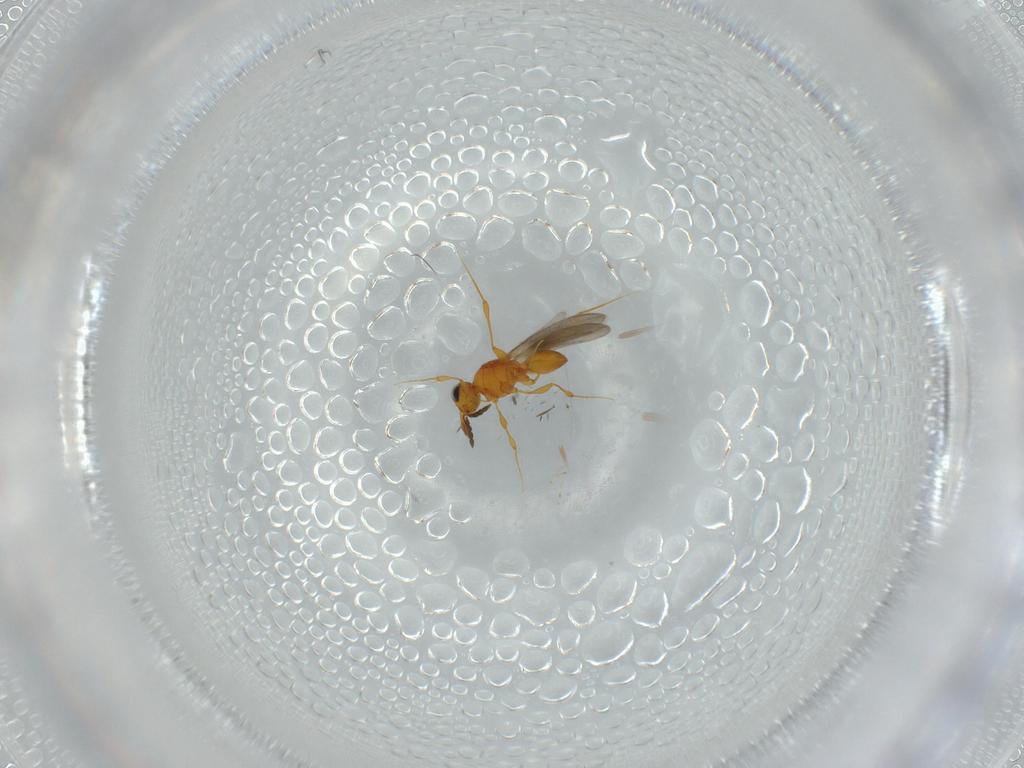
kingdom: Animalia
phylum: Arthropoda
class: Insecta
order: Hymenoptera
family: Platygastridae
